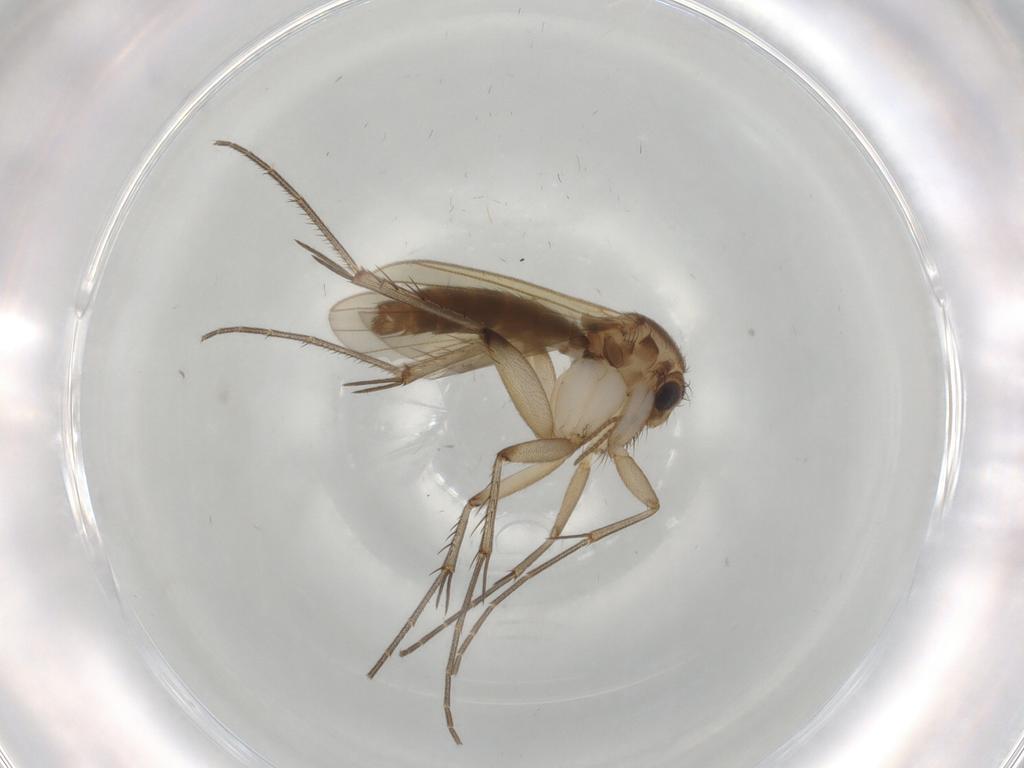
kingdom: Animalia
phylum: Arthropoda
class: Insecta
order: Diptera
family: Mycetophilidae
